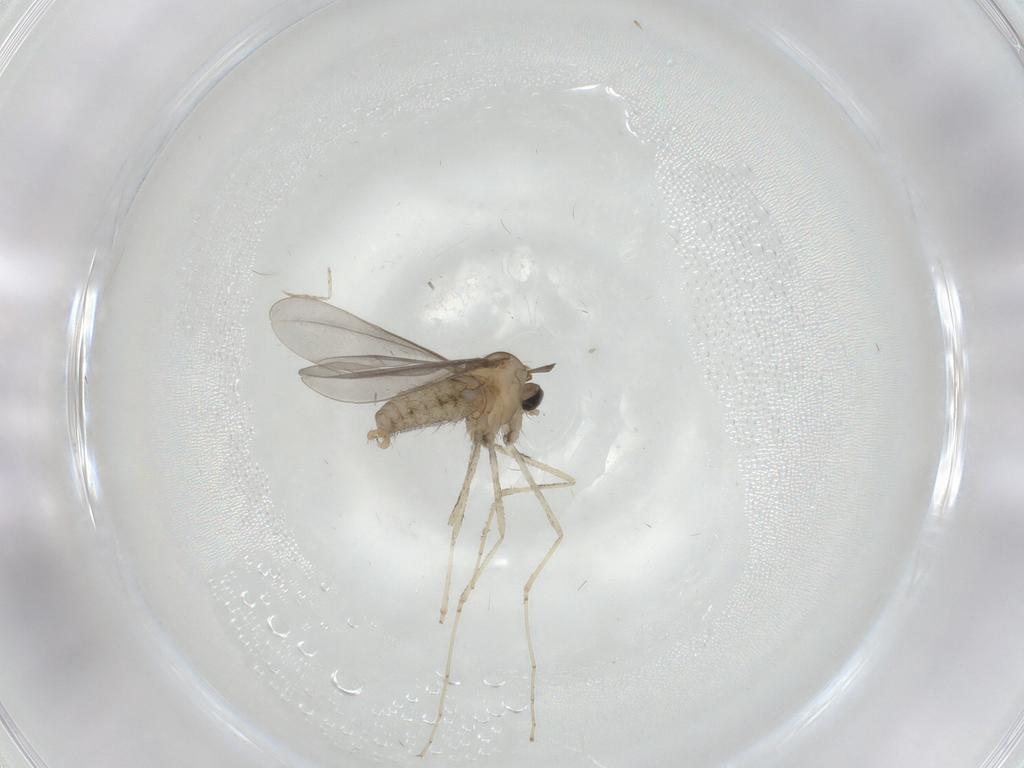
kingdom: Animalia
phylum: Arthropoda
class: Insecta
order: Diptera
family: Cecidomyiidae
